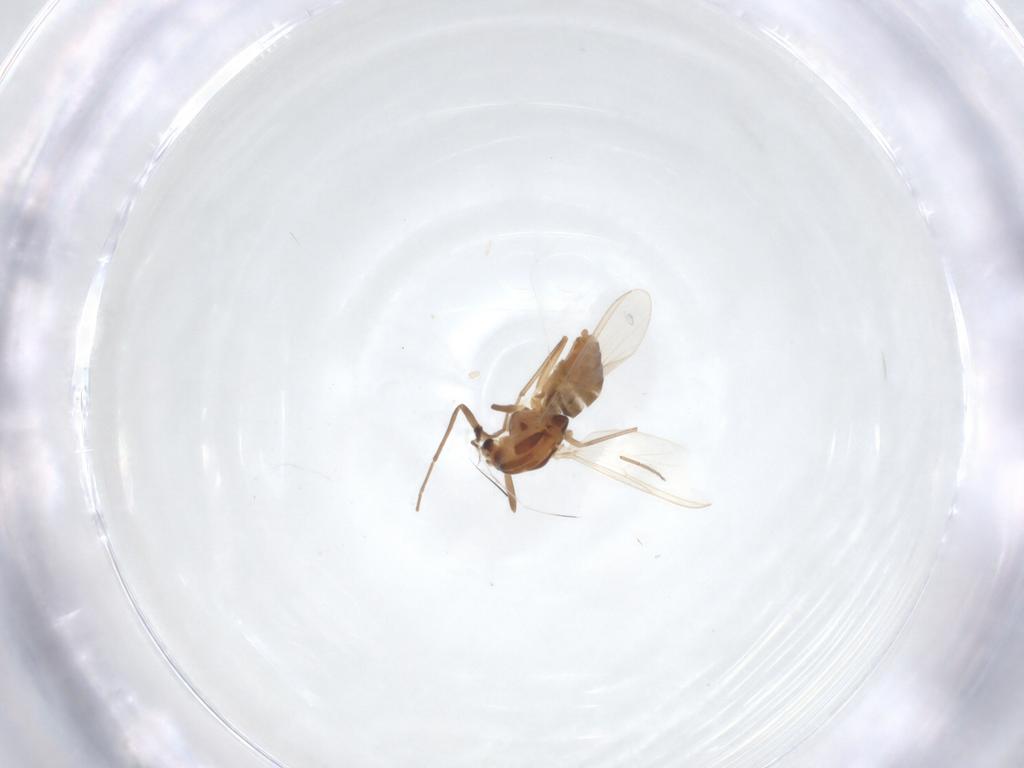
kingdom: Animalia
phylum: Arthropoda
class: Insecta
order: Diptera
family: Chironomidae
